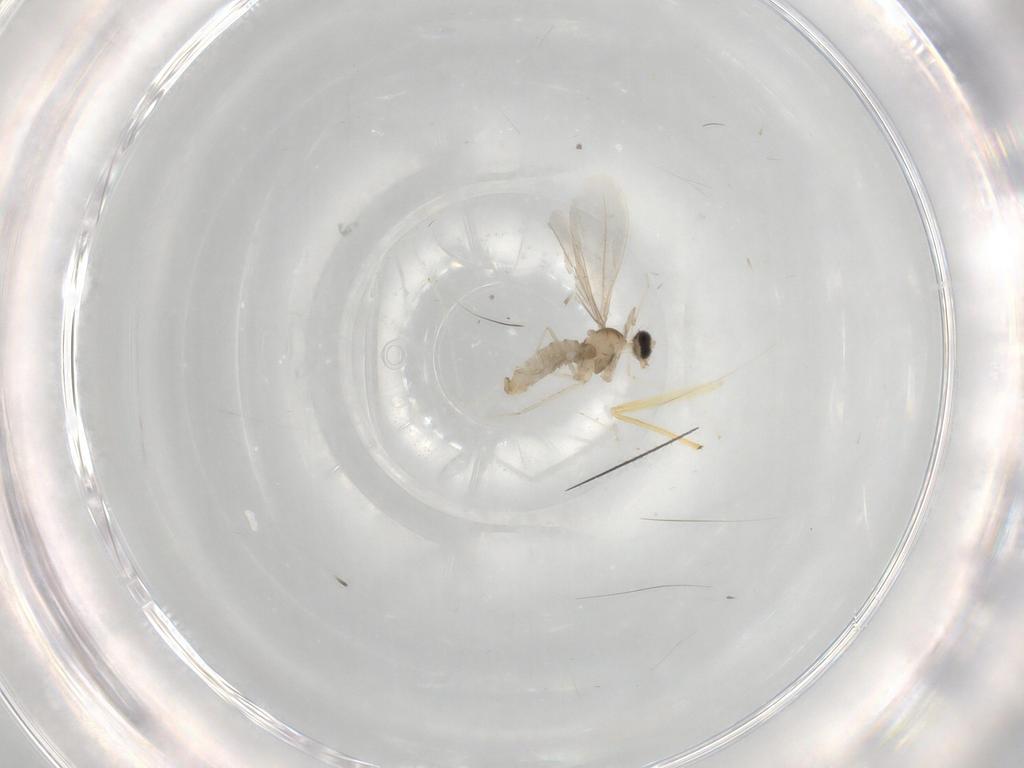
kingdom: Animalia
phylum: Arthropoda
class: Insecta
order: Diptera
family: Cecidomyiidae
